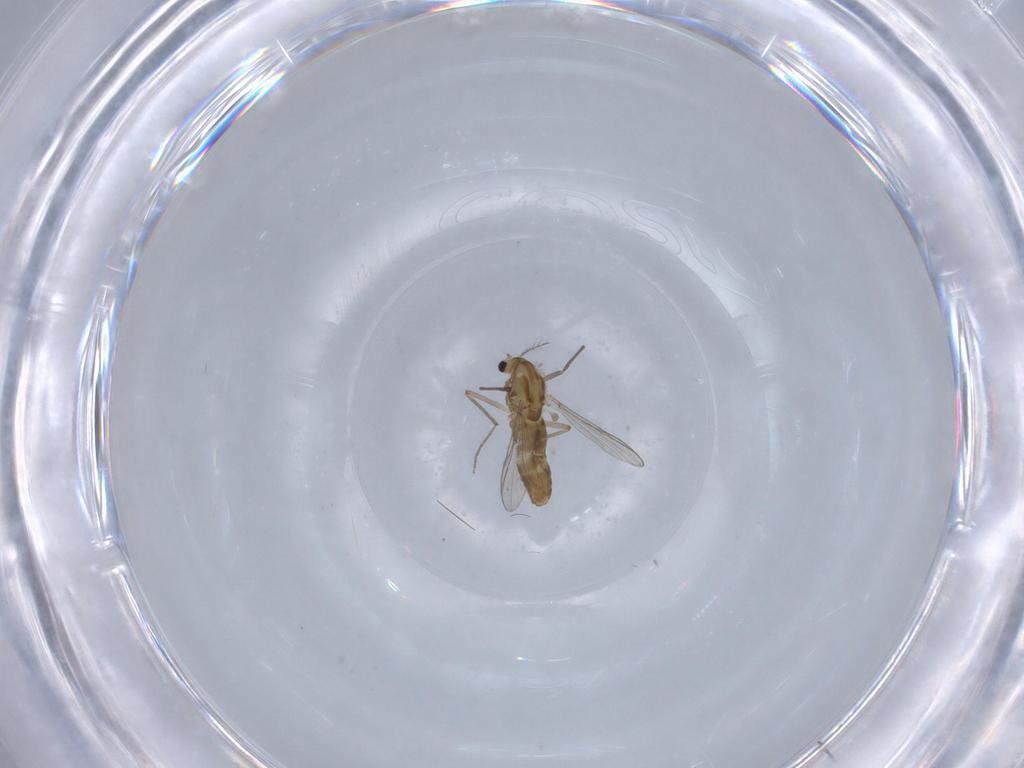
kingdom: Animalia
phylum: Arthropoda
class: Insecta
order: Diptera
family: Chironomidae
